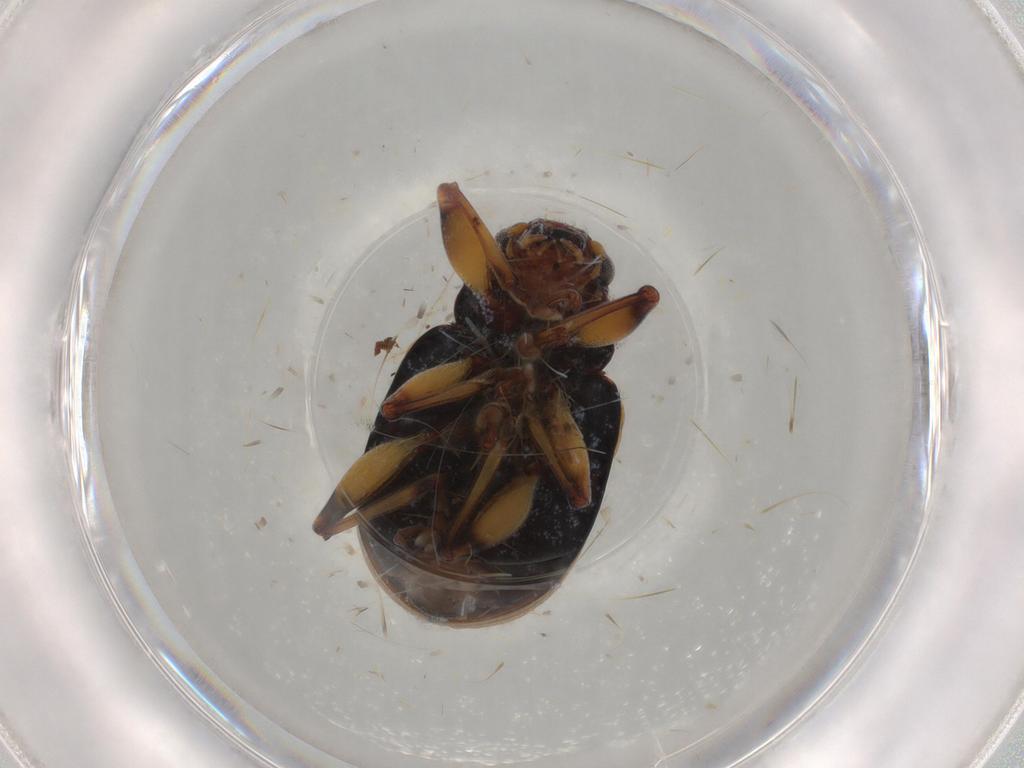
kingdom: Animalia
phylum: Arthropoda
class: Insecta
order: Coleoptera
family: Chrysomelidae
